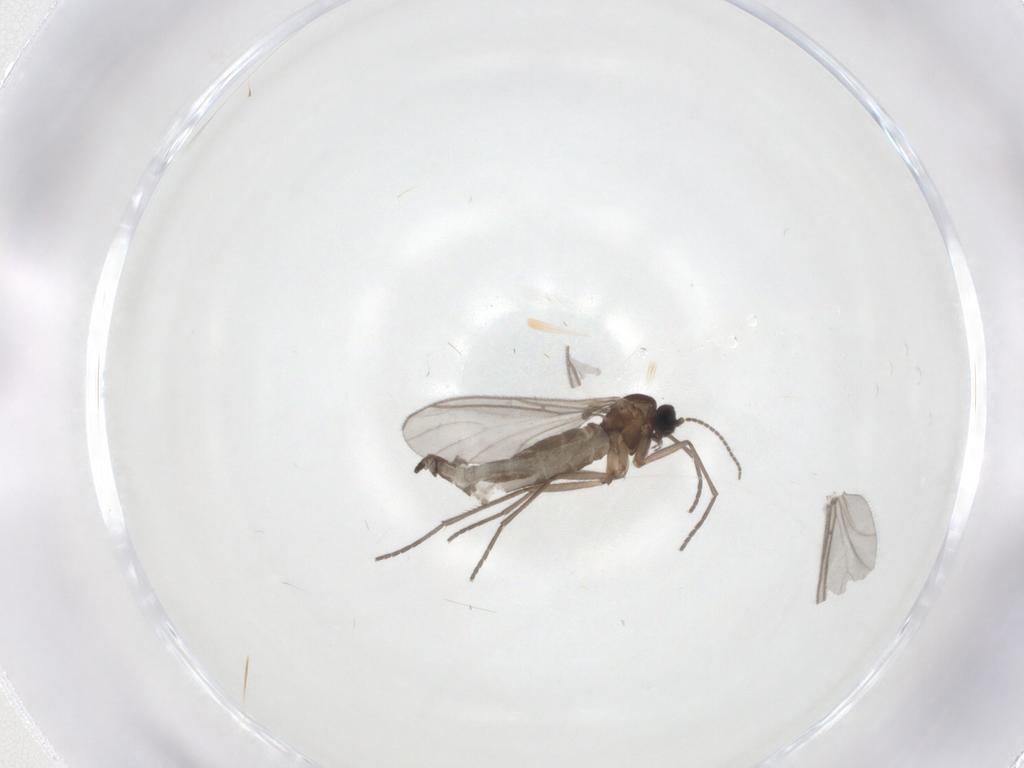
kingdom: Animalia
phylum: Arthropoda
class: Insecta
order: Diptera
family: Sciaridae
